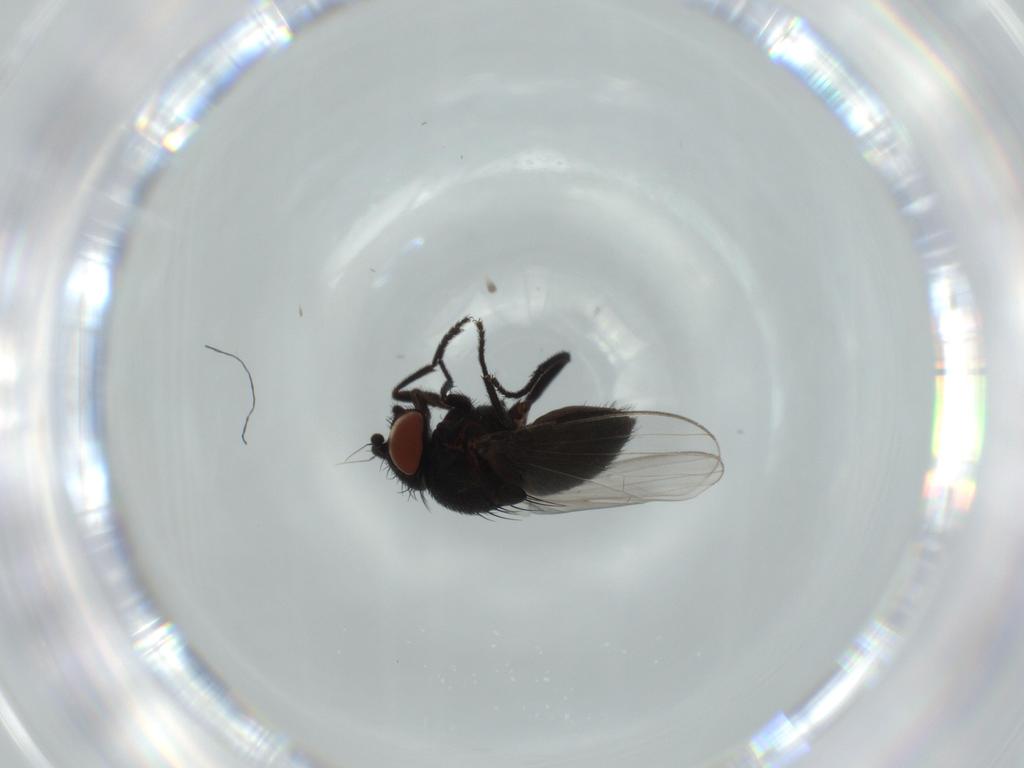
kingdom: Animalia
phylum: Arthropoda
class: Insecta
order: Diptera
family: Milichiidae
